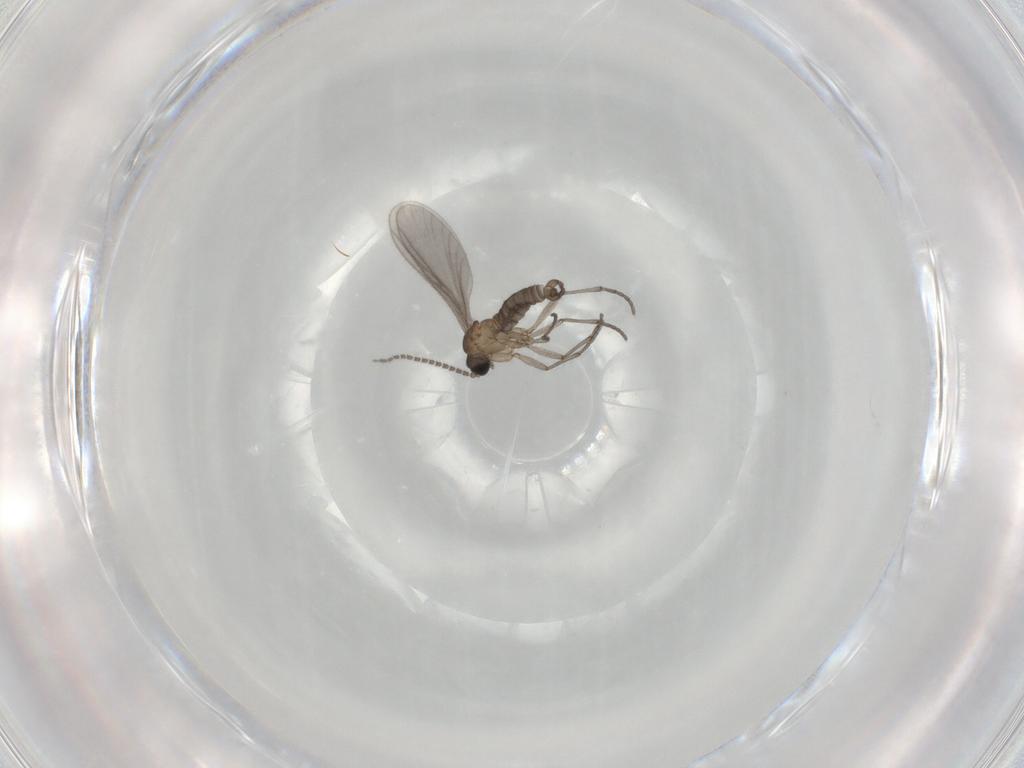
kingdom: Animalia
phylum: Arthropoda
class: Insecta
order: Diptera
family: Sciaridae
